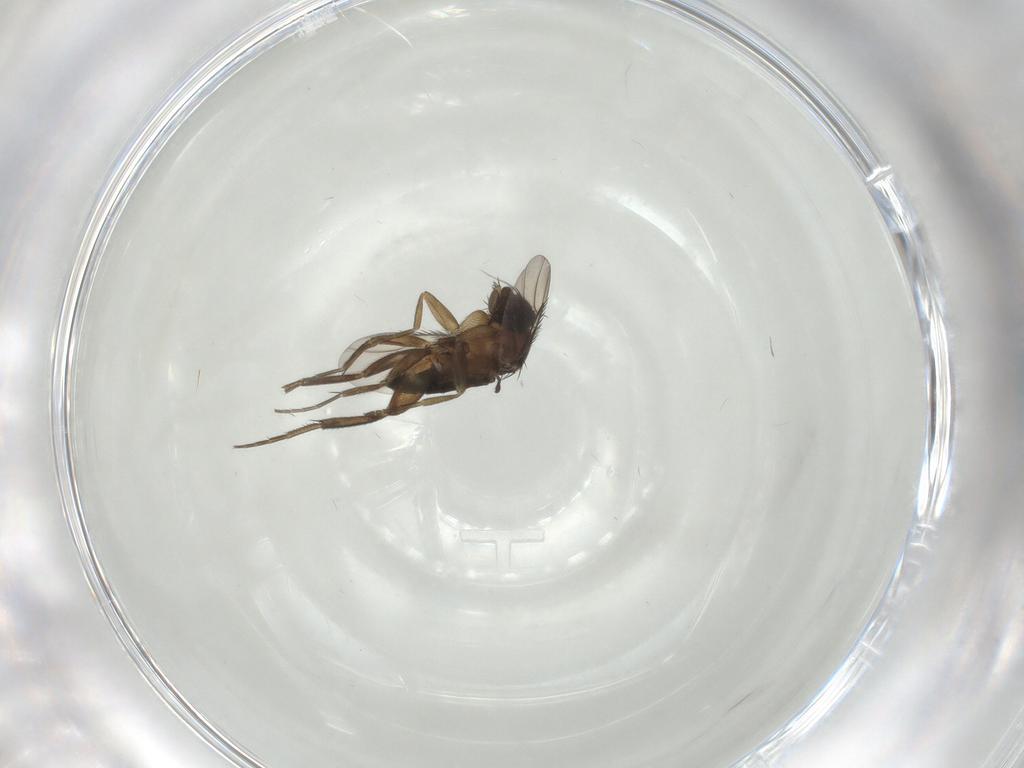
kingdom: Animalia
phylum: Arthropoda
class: Insecta
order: Diptera
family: Phoridae
